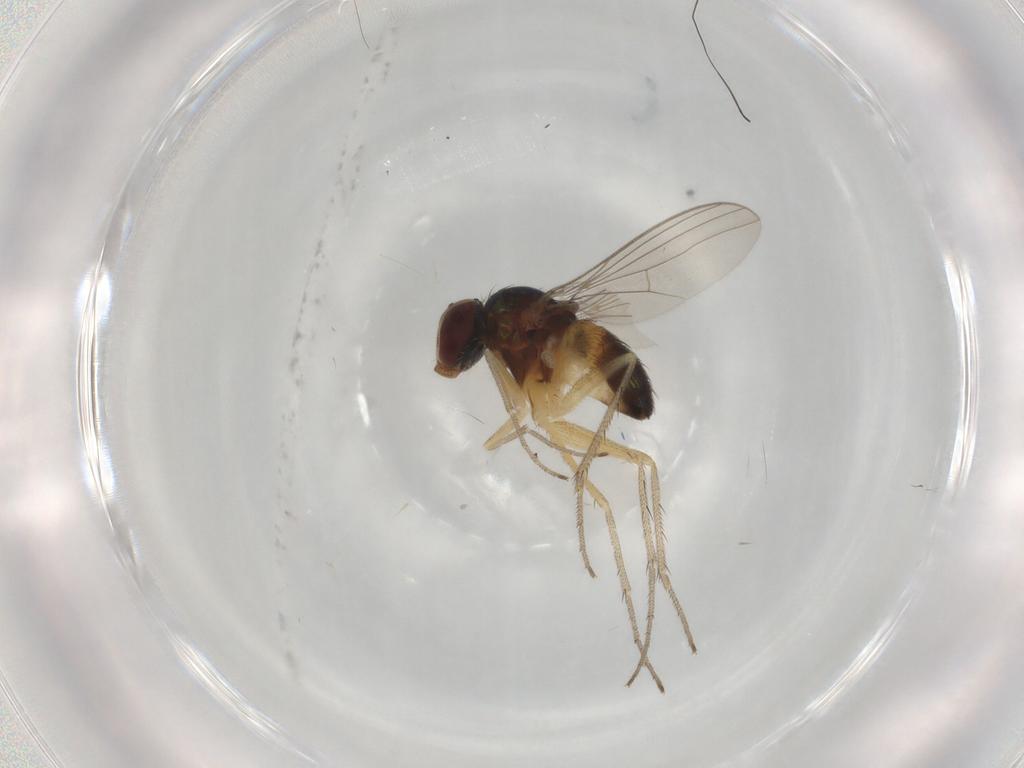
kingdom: Animalia
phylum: Arthropoda
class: Insecta
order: Diptera
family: Dolichopodidae
